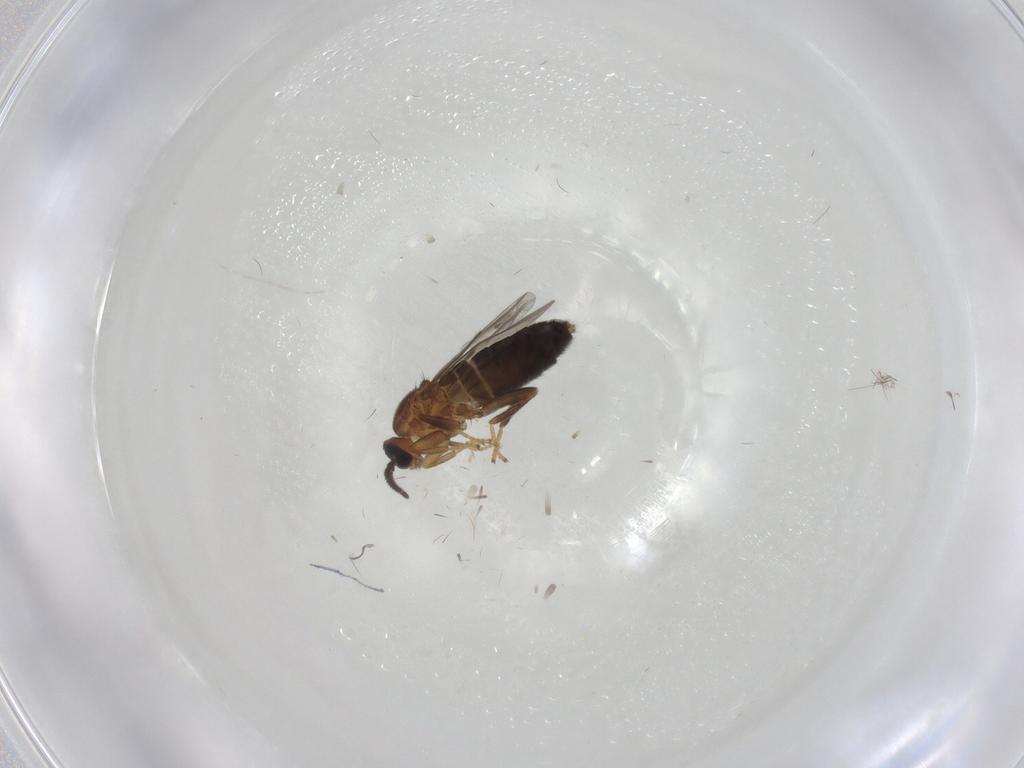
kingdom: Animalia
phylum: Arthropoda
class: Insecta
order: Diptera
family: Scatopsidae
